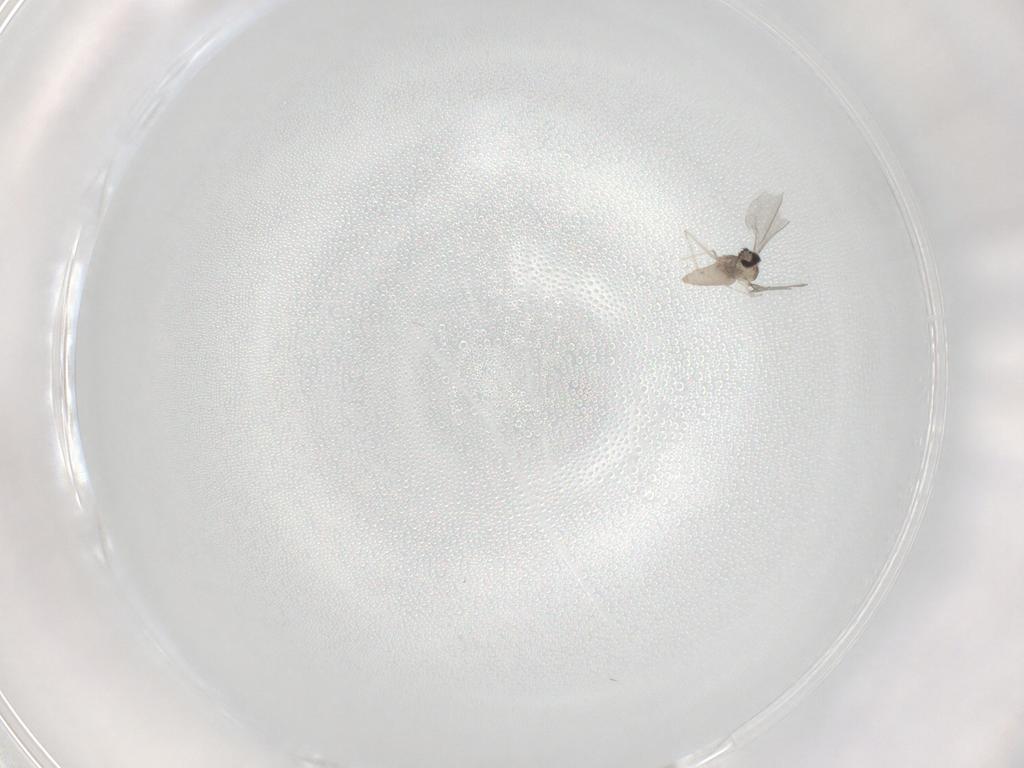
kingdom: Animalia
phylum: Arthropoda
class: Insecta
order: Diptera
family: Cecidomyiidae
